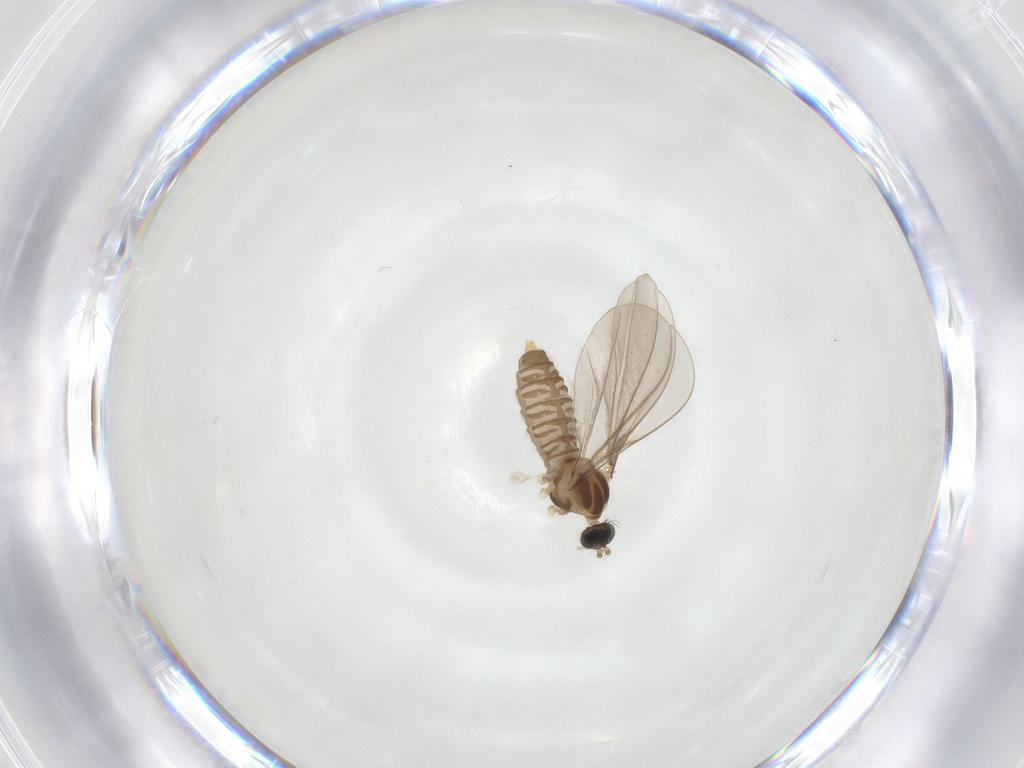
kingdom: Animalia
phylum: Arthropoda
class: Insecta
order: Diptera
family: Cecidomyiidae
